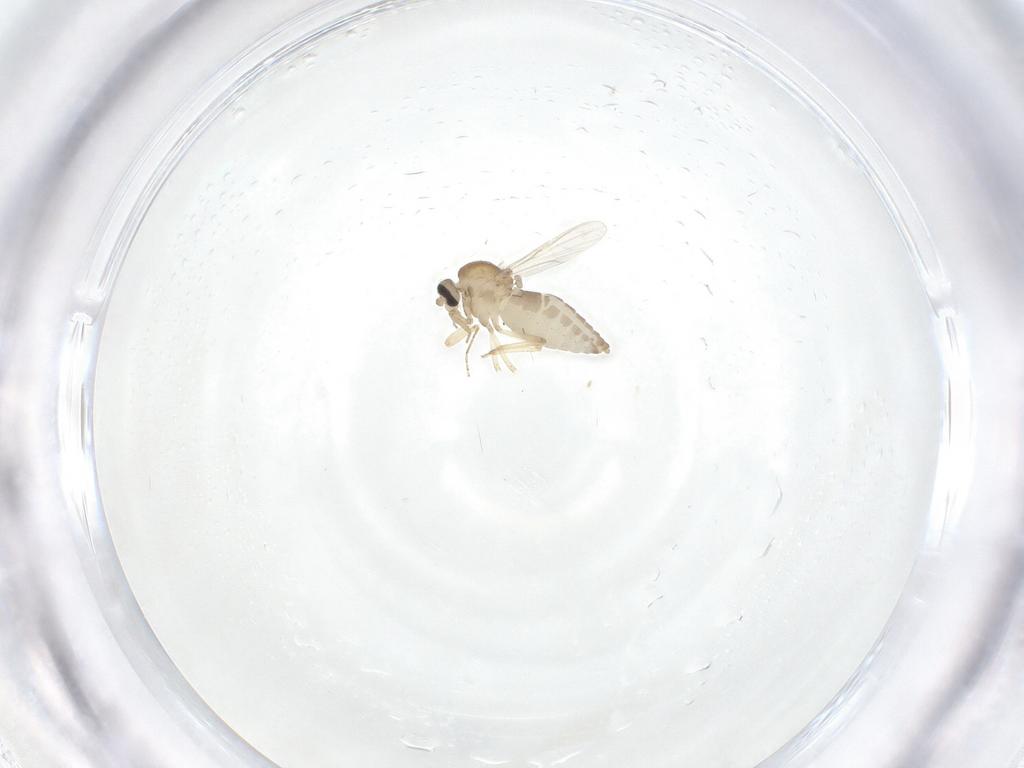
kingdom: Animalia
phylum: Arthropoda
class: Insecta
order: Diptera
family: Ceratopogonidae
